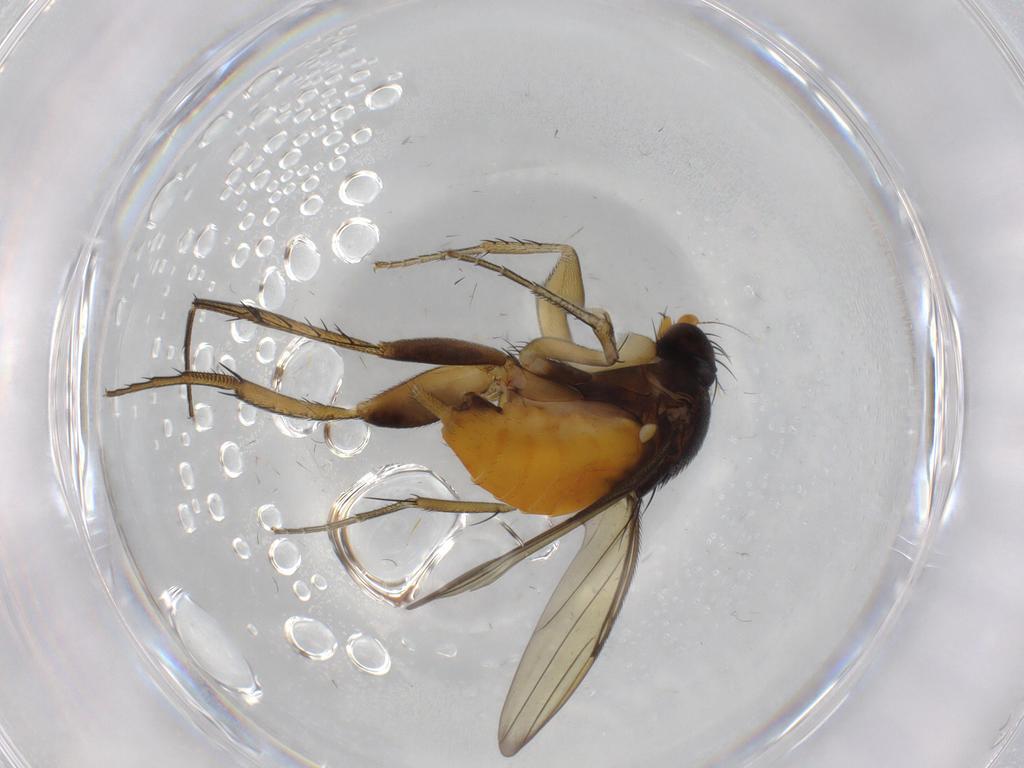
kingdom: Animalia
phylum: Arthropoda
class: Insecta
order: Diptera
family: Phoridae
